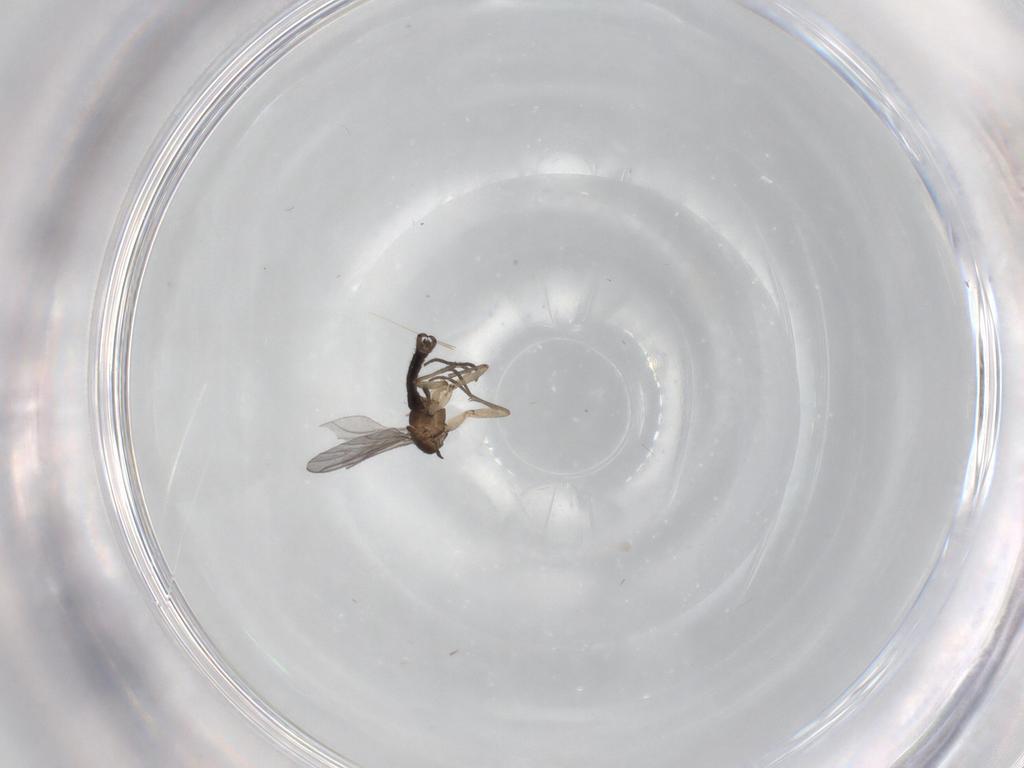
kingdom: Animalia
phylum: Arthropoda
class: Insecta
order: Diptera
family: Sciaridae
